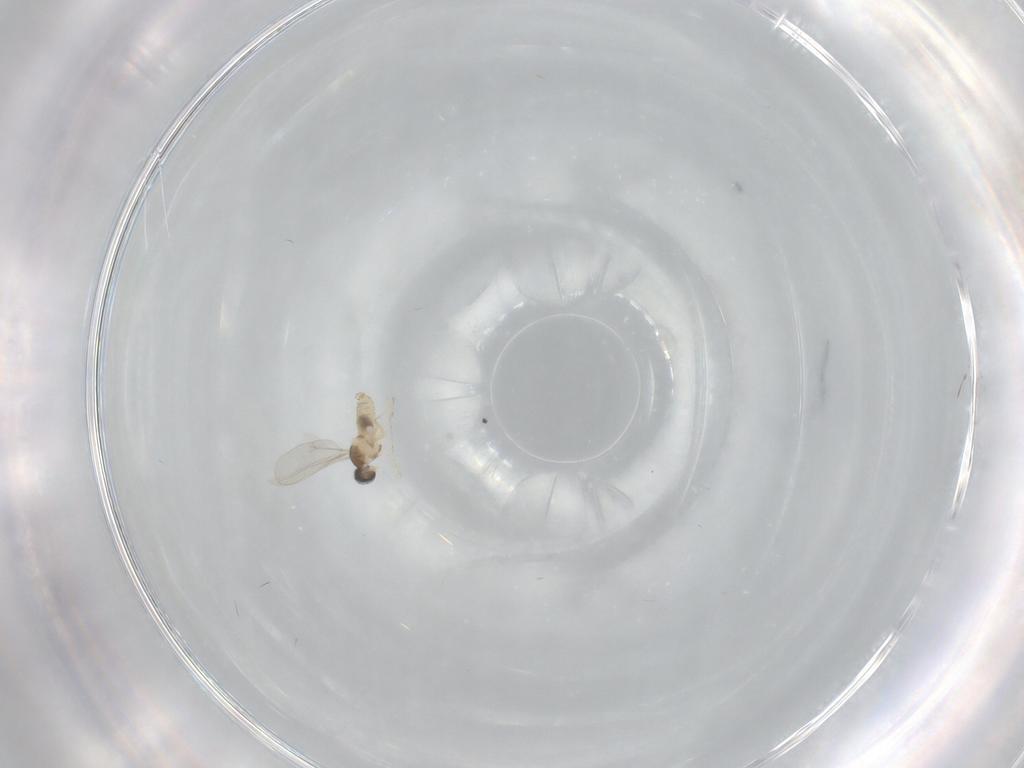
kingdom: Animalia
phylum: Arthropoda
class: Insecta
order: Diptera
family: Cecidomyiidae
